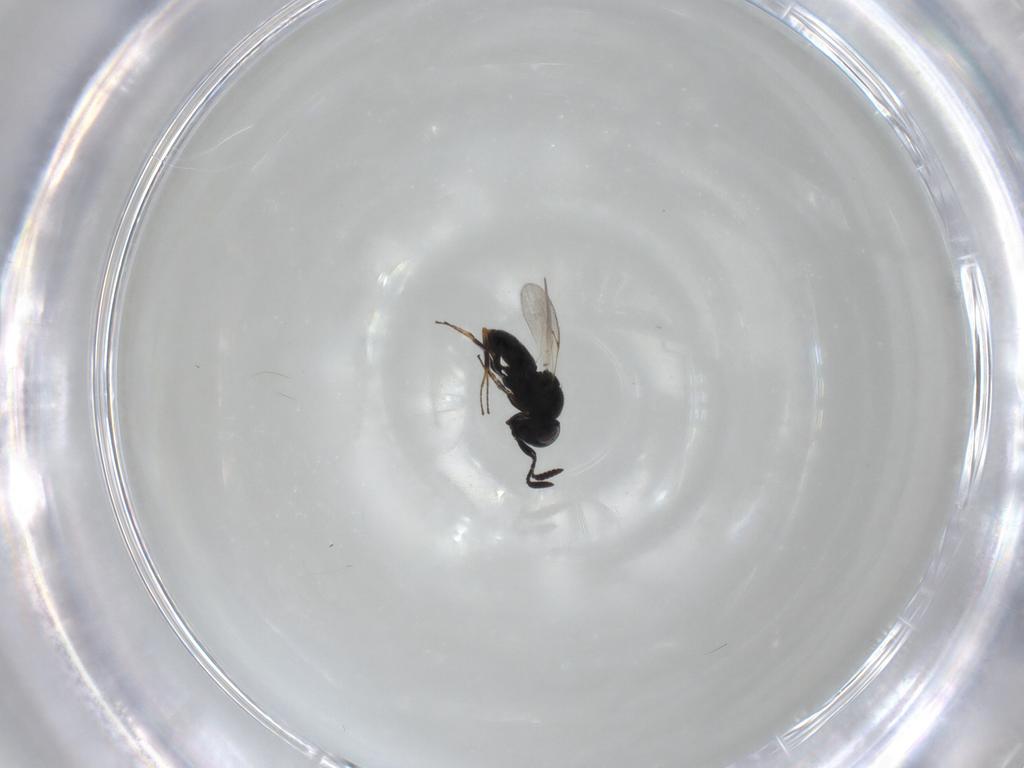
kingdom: Animalia
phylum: Arthropoda
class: Insecta
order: Hymenoptera
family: Scelionidae
